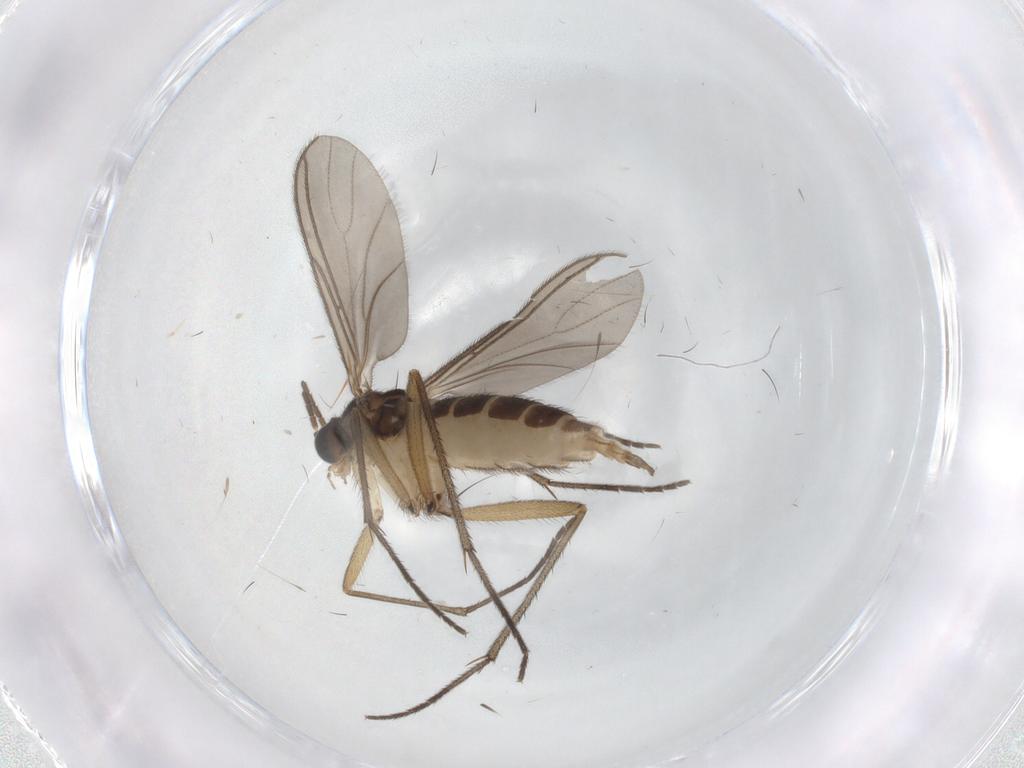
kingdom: Animalia
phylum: Arthropoda
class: Insecta
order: Diptera
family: Sciaridae
